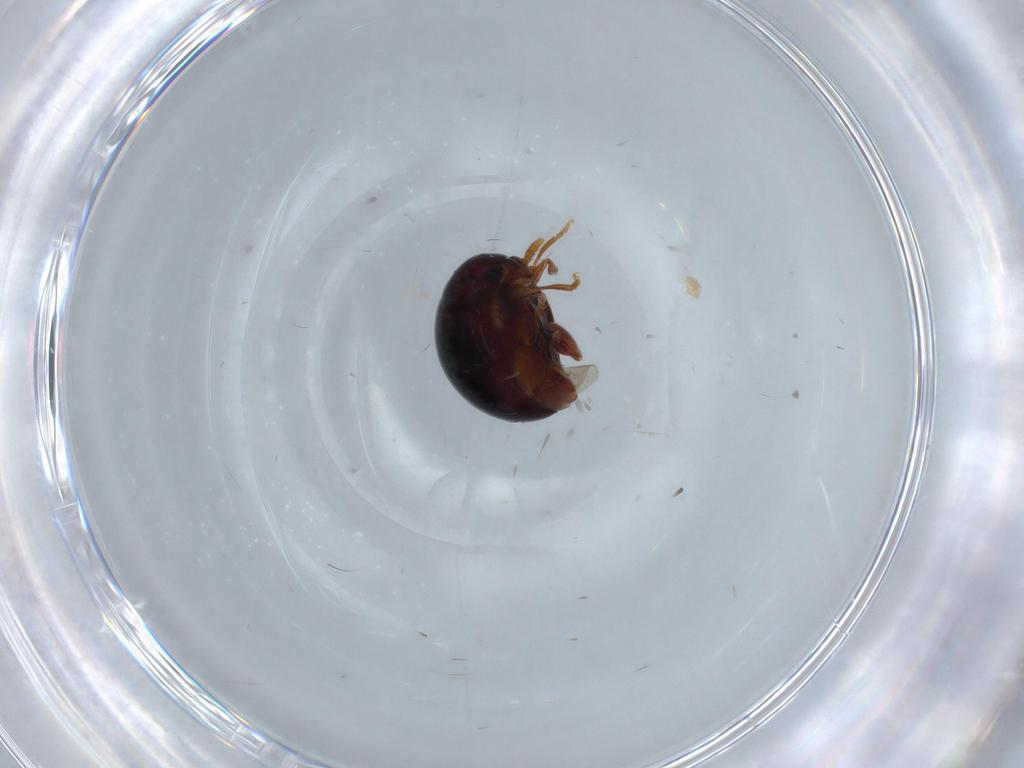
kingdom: Animalia
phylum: Arthropoda
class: Insecta
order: Coleoptera
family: Chrysomelidae
